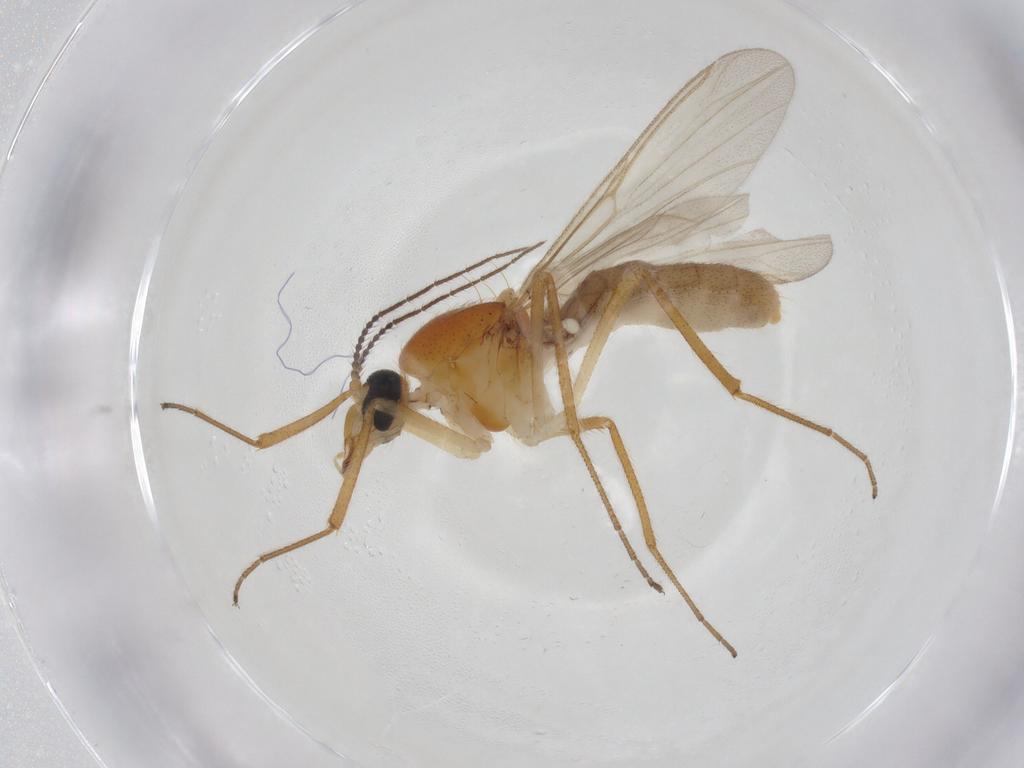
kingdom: Animalia
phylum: Arthropoda
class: Insecta
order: Diptera
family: Ceratopogonidae
